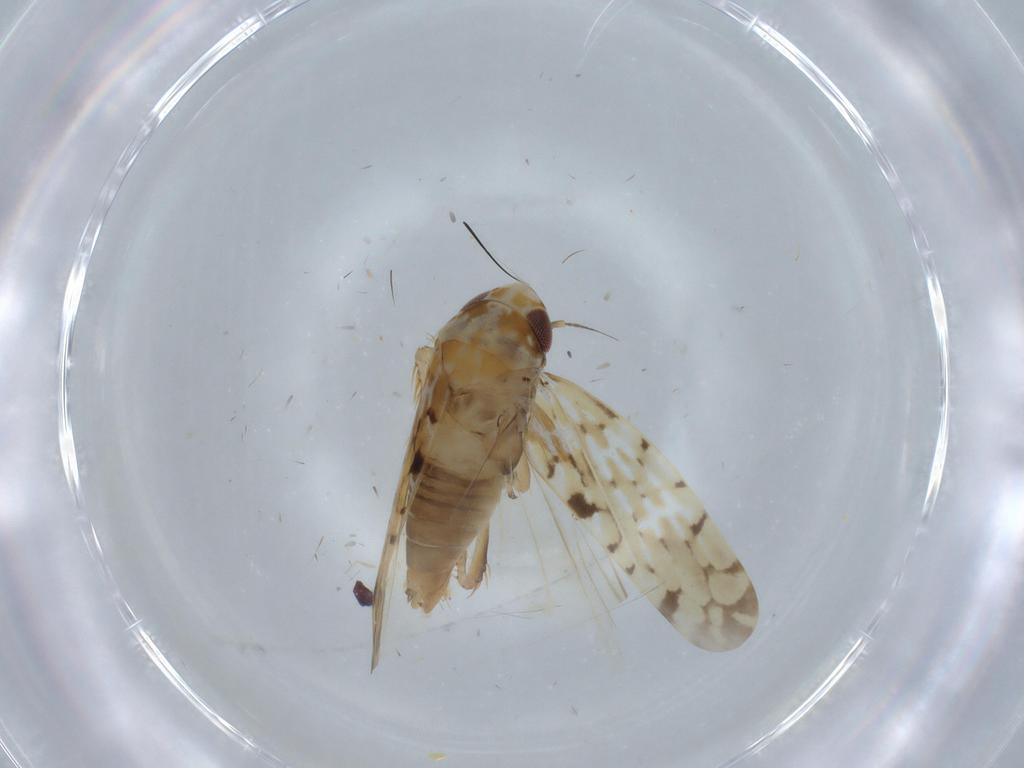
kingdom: Animalia
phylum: Arthropoda
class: Insecta
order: Hemiptera
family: Cicadellidae
